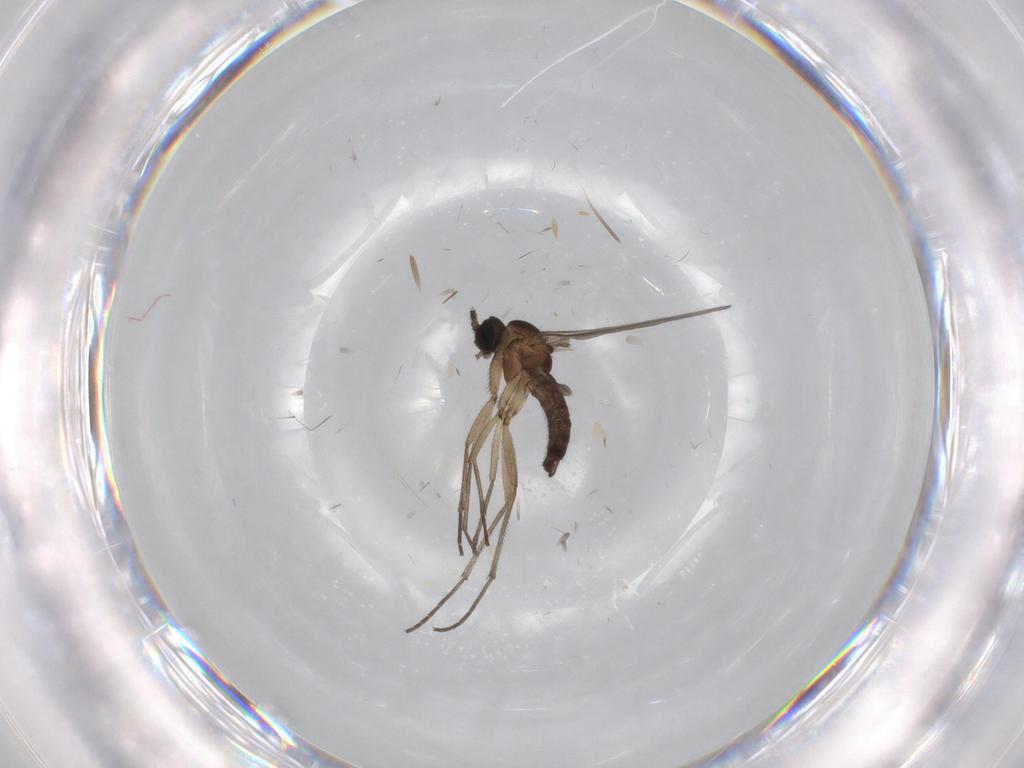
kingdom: Animalia
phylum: Arthropoda
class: Insecta
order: Diptera
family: Sciaridae
